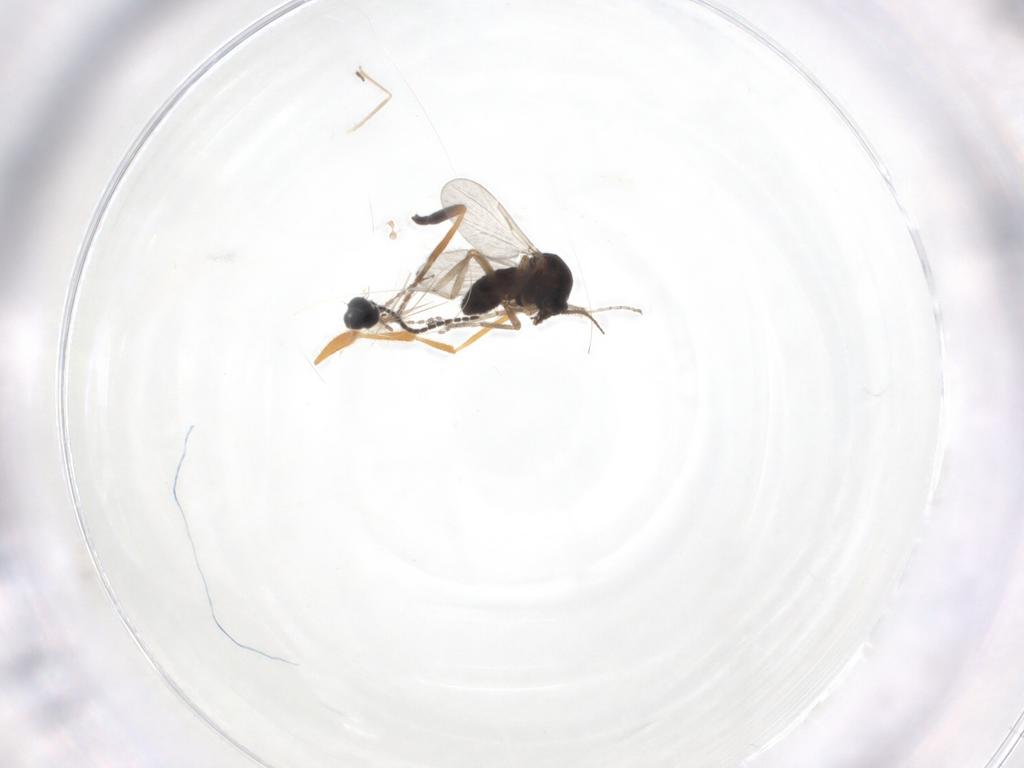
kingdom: Animalia
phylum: Arthropoda
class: Insecta
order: Diptera
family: Chironomidae
